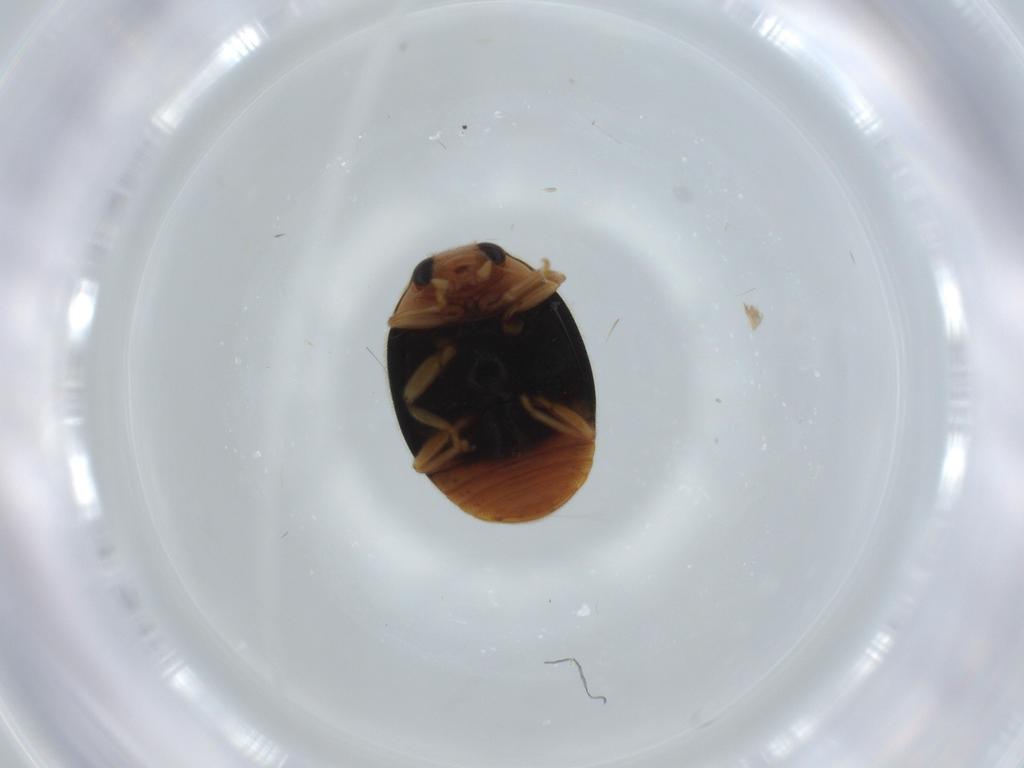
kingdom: Animalia
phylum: Arthropoda
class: Insecta
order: Coleoptera
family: Coccinellidae
